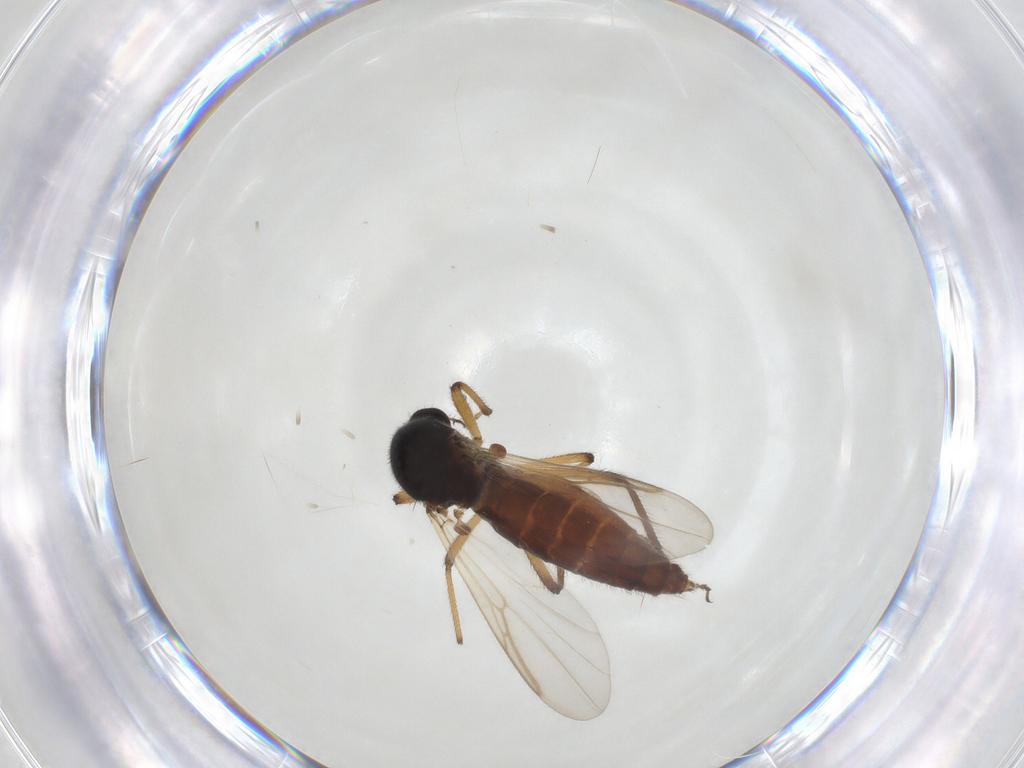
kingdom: Animalia
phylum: Arthropoda
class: Insecta
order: Diptera
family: Ceratopogonidae
